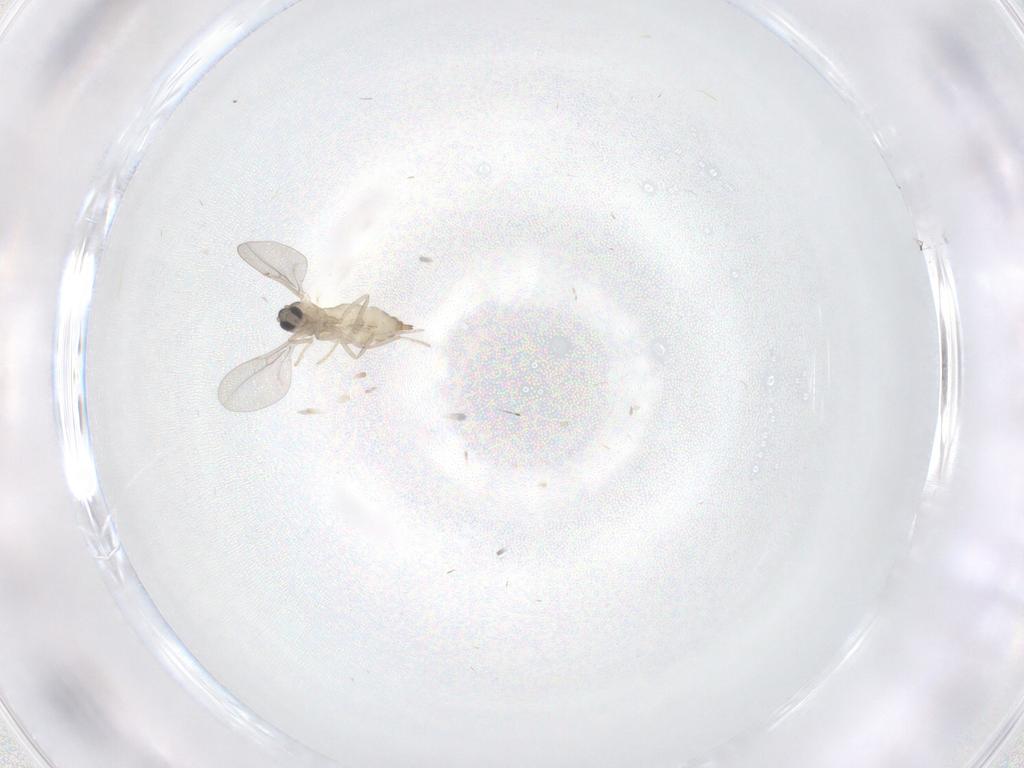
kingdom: Animalia
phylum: Arthropoda
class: Insecta
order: Diptera
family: Cecidomyiidae
